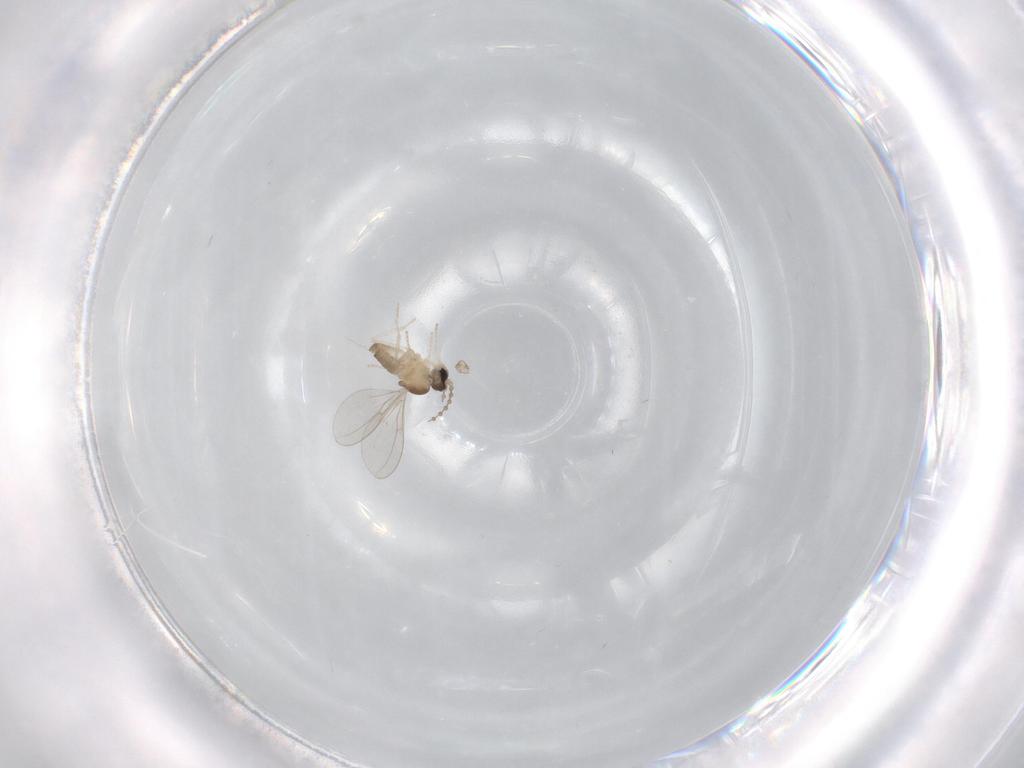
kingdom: Animalia
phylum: Arthropoda
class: Insecta
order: Diptera
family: Cecidomyiidae
